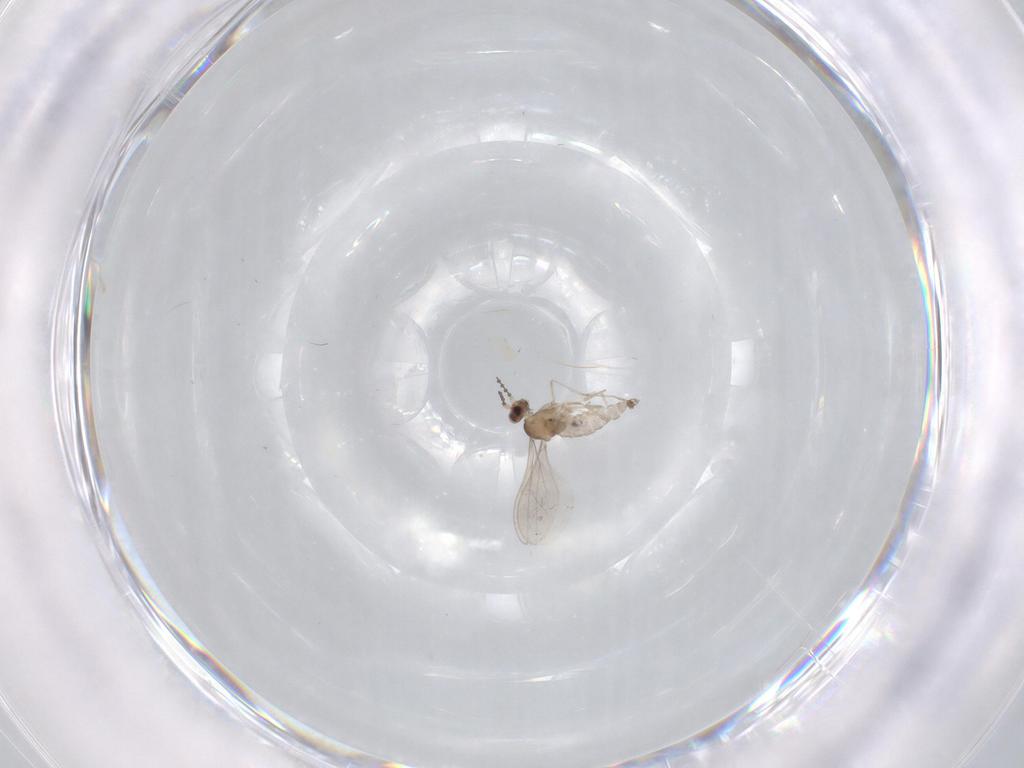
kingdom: Animalia
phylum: Arthropoda
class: Insecta
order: Diptera
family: Cecidomyiidae
